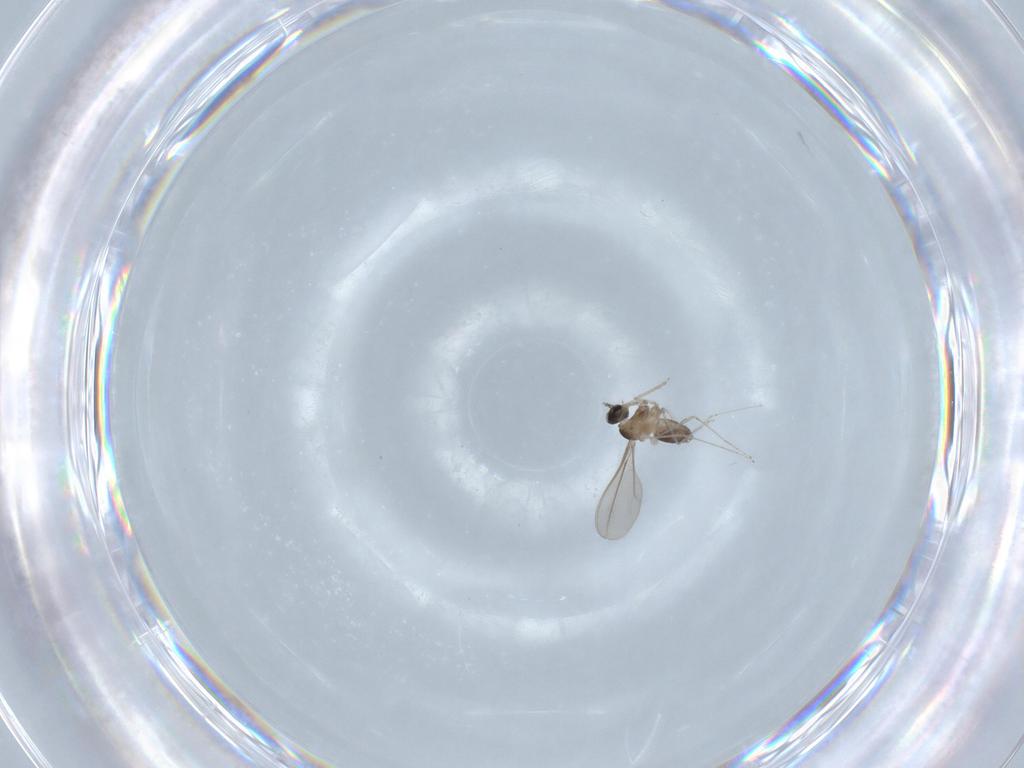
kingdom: Animalia
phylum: Arthropoda
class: Insecta
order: Diptera
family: Cecidomyiidae
